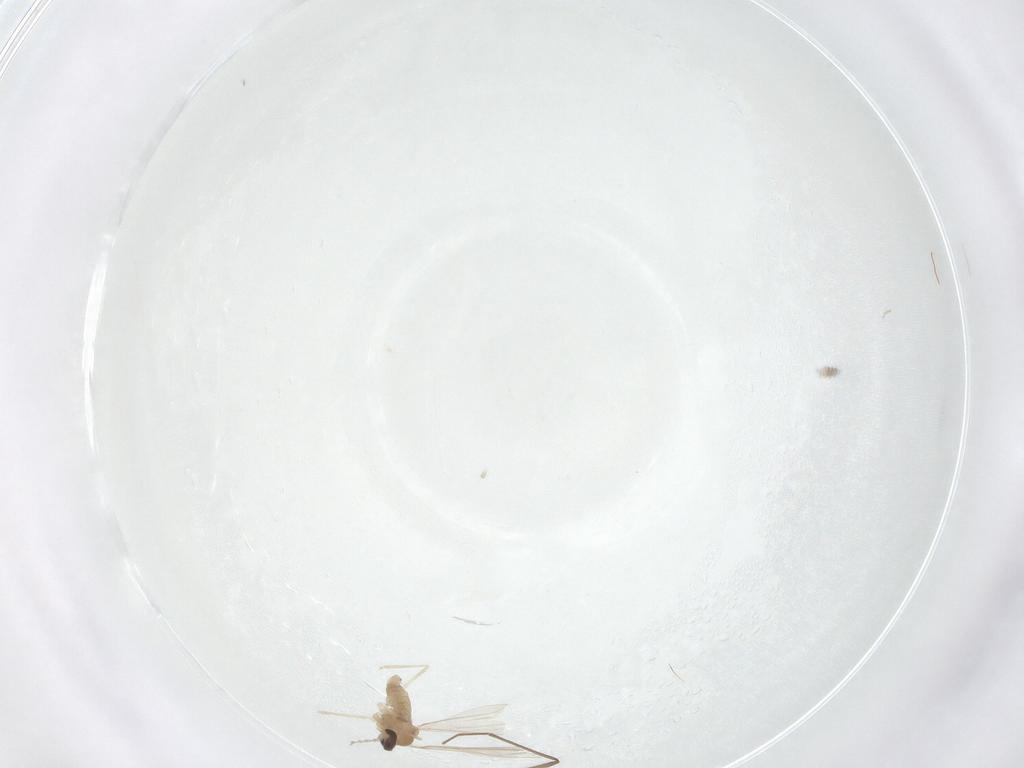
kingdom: Animalia
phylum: Arthropoda
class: Insecta
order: Diptera
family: Cecidomyiidae
